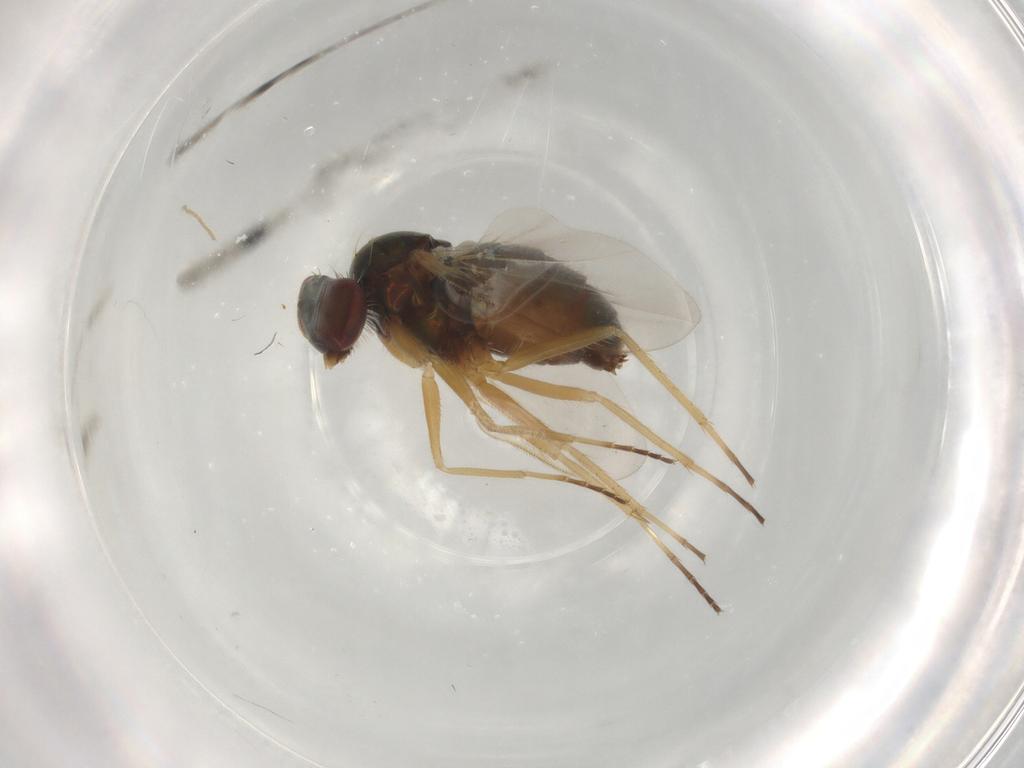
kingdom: Animalia
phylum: Arthropoda
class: Insecta
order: Diptera
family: Dolichopodidae
